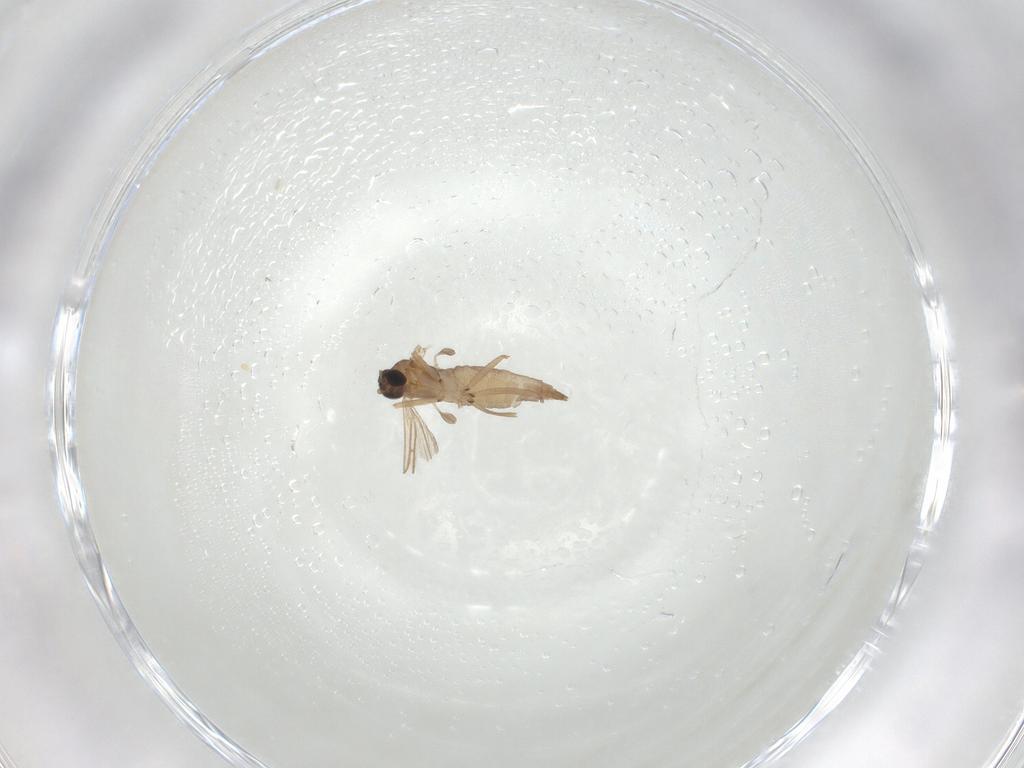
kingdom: Animalia
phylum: Arthropoda
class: Insecta
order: Diptera
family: Sciaridae
